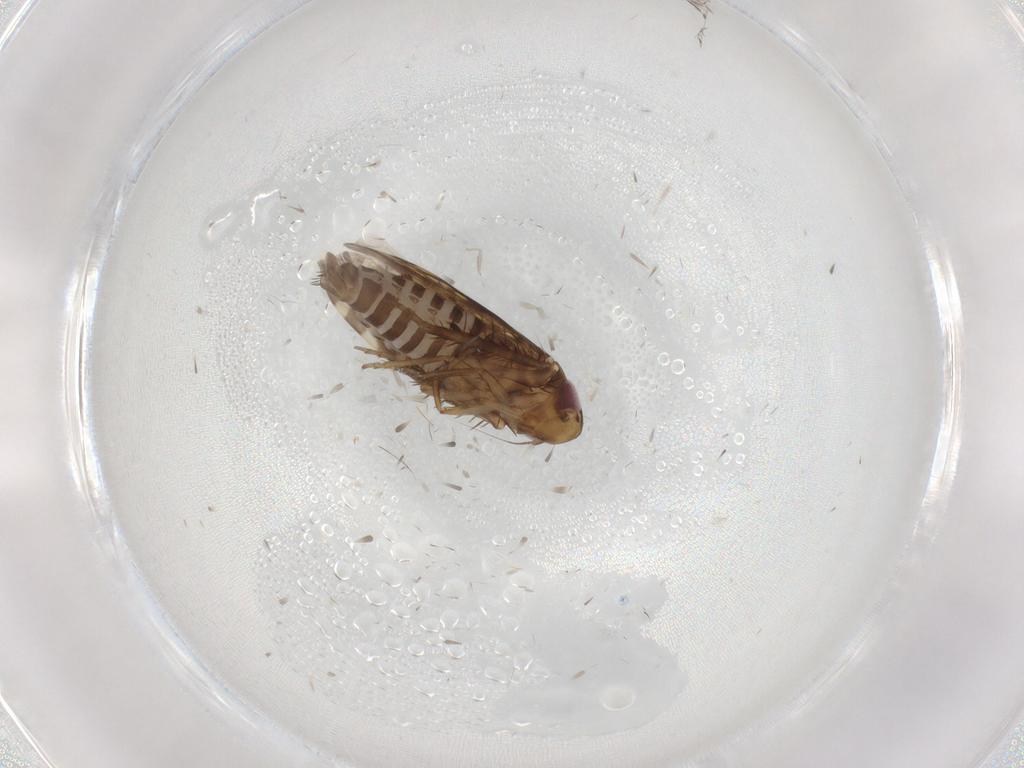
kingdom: Animalia
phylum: Arthropoda
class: Insecta
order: Hemiptera
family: Cicadellidae
